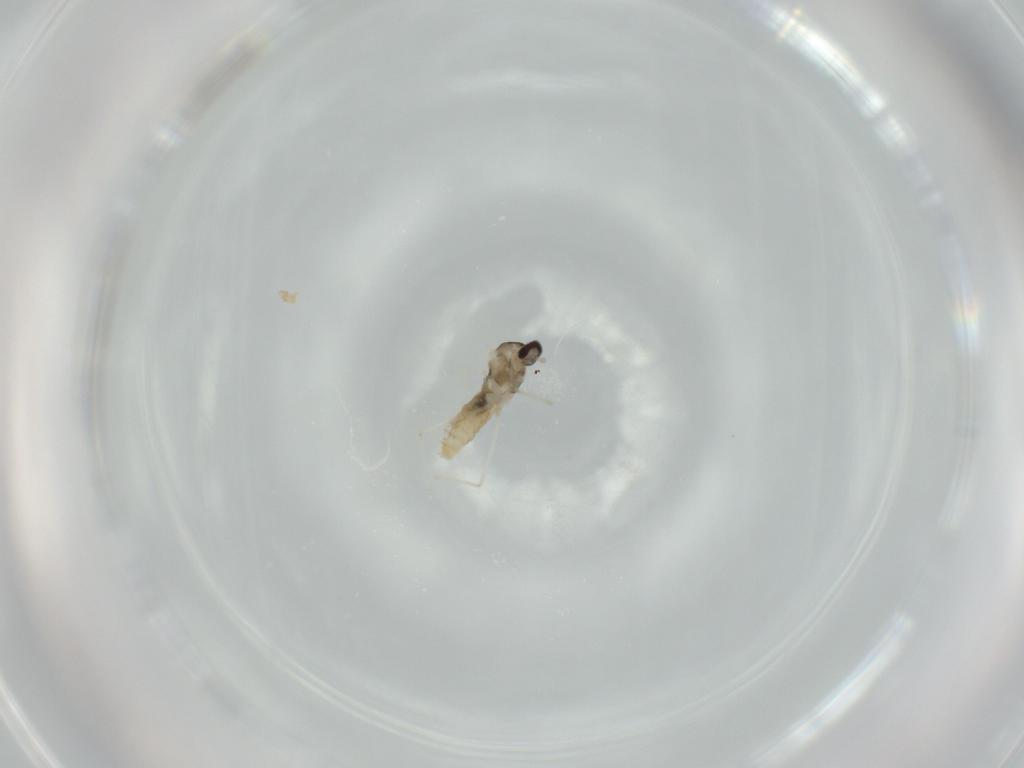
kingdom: Animalia
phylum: Arthropoda
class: Insecta
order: Diptera
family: Cecidomyiidae
